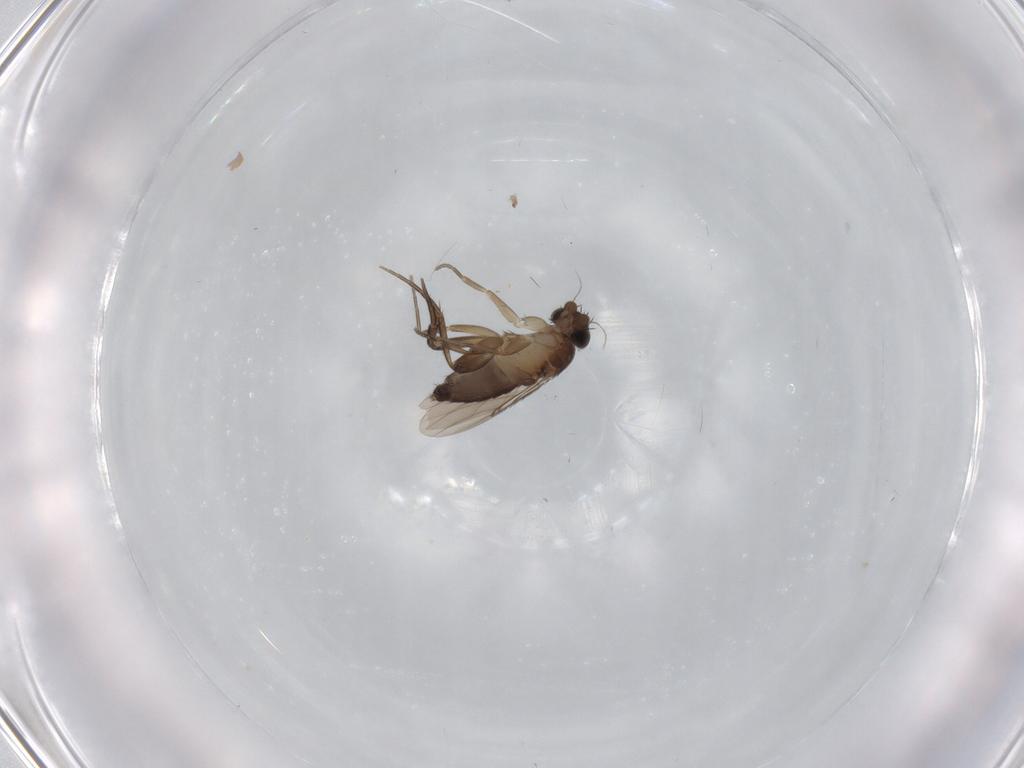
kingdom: Animalia
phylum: Arthropoda
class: Insecta
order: Diptera
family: Phoridae
